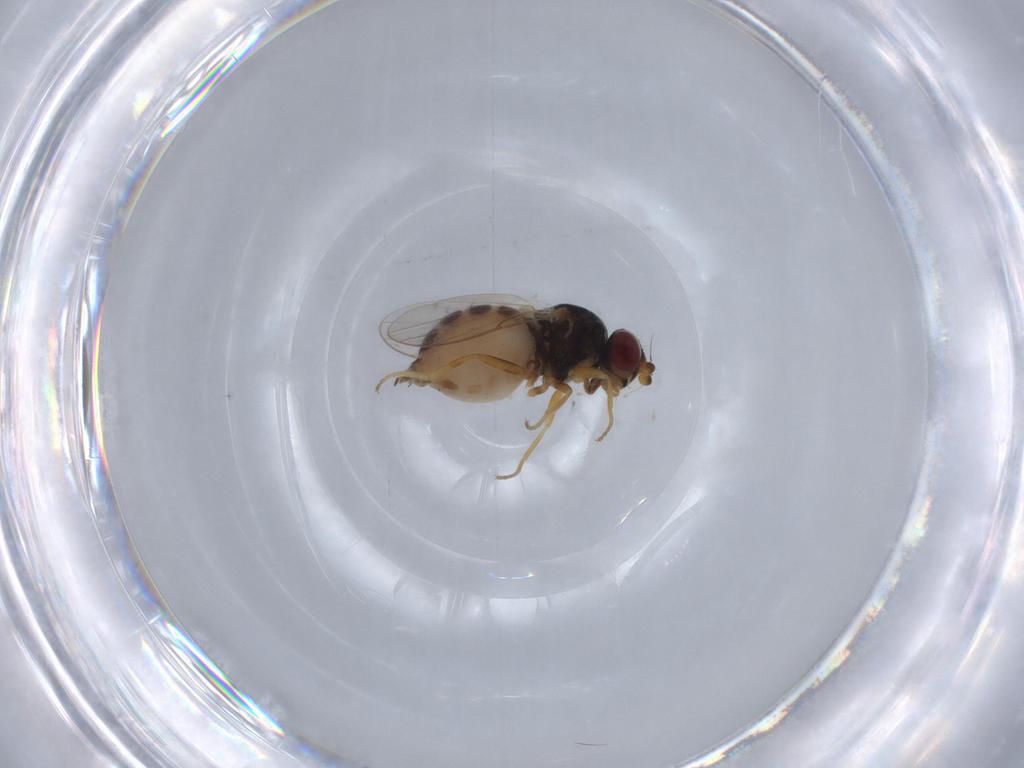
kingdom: Animalia
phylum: Arthropoda
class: Insecta
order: Diptera
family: Chloropidae
